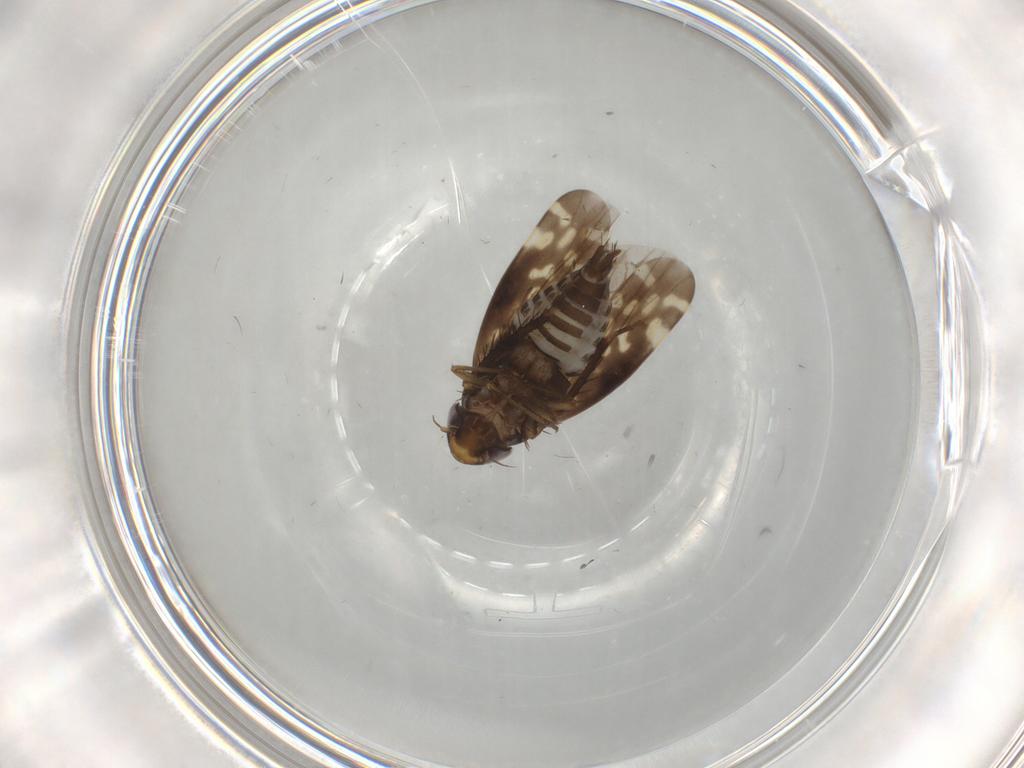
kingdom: Animalia
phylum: Arthropoda
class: Insecta
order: Hemiptera
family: Cicadellidae
